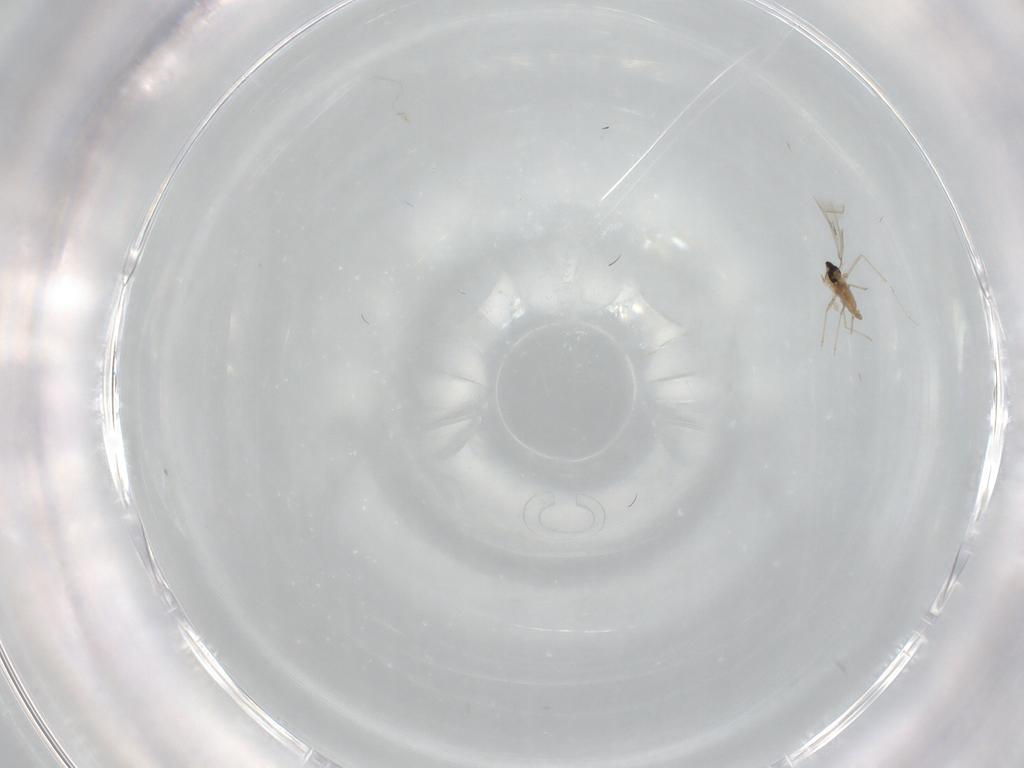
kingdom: Animalia
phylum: Arthropoda
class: Insecta
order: Diptera
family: Cecidomyiidae
